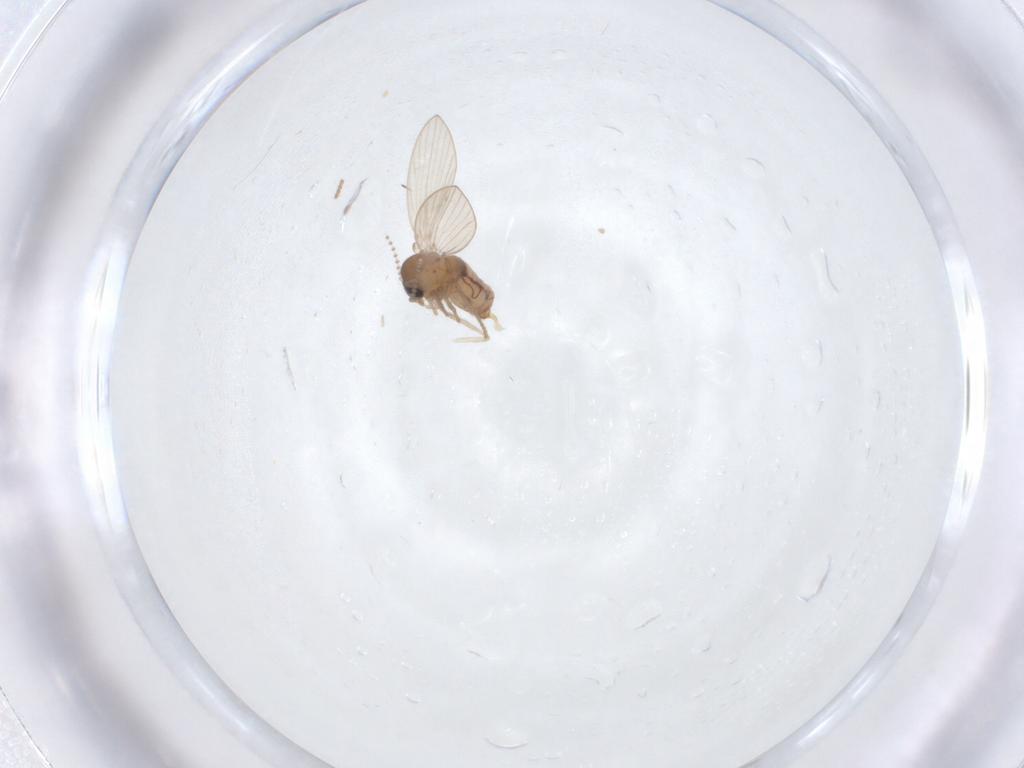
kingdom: Animalia
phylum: Arthropoda
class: Insecta
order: Diptera
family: Psychodidae
